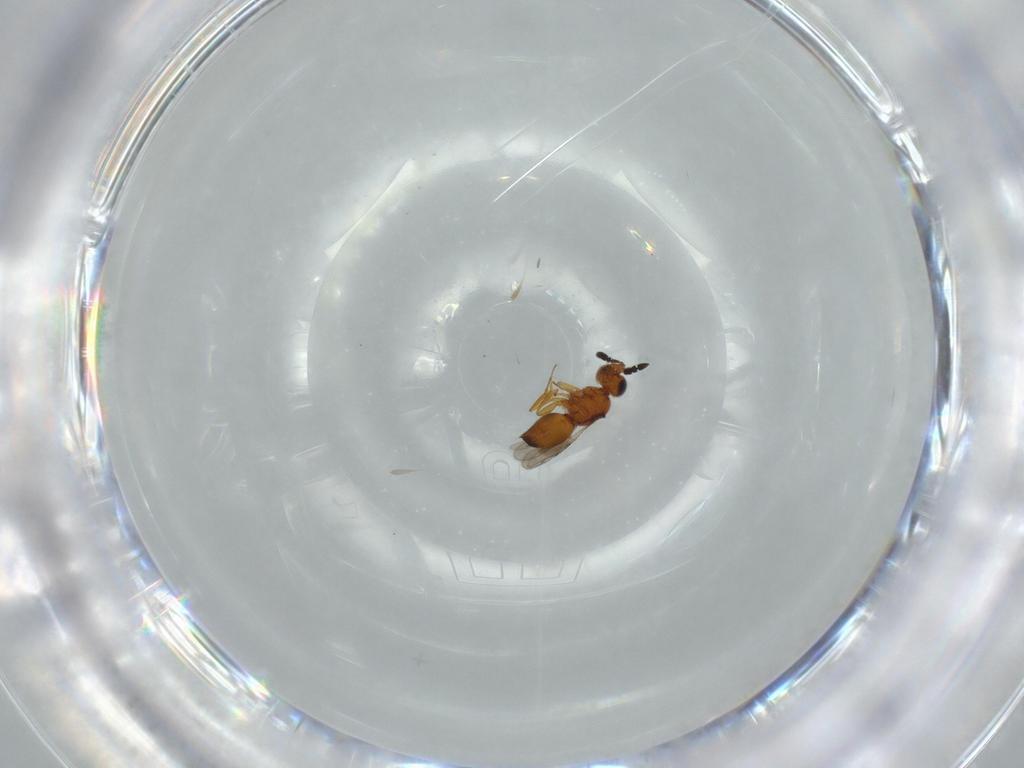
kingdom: Animalia
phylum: Arthropoda
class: Insecta
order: Hymenoptera
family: Ceraphronidae
